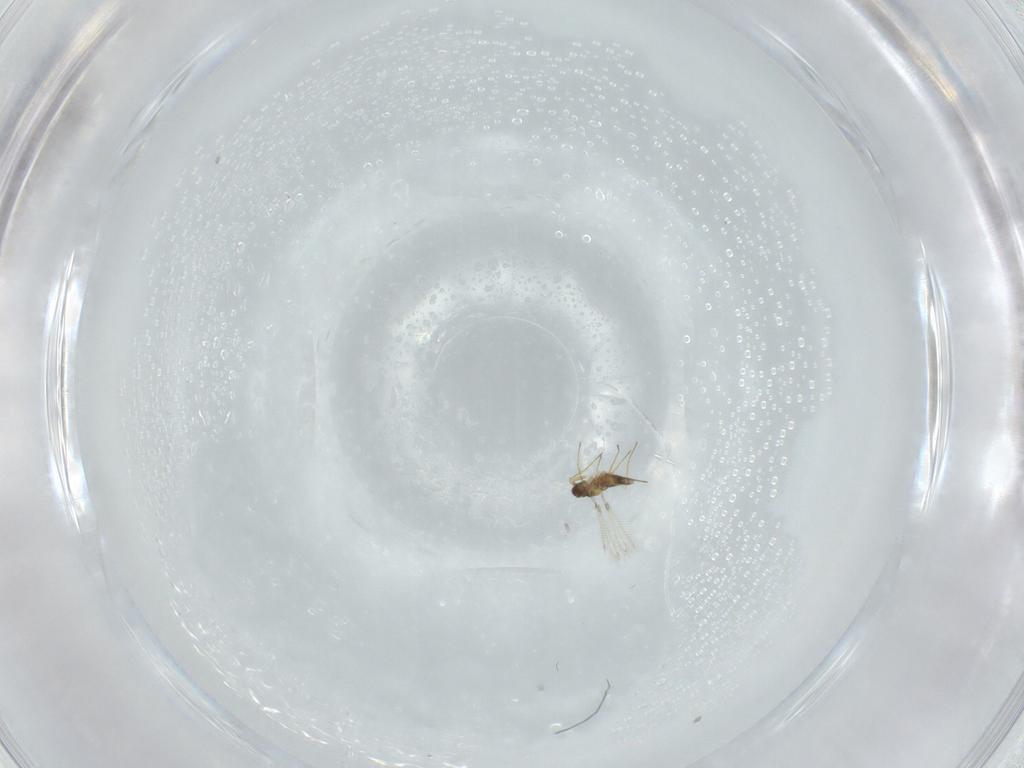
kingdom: Animalia
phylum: Arthropoda
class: Insecta
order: Hymenoptera
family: Mymaridae
